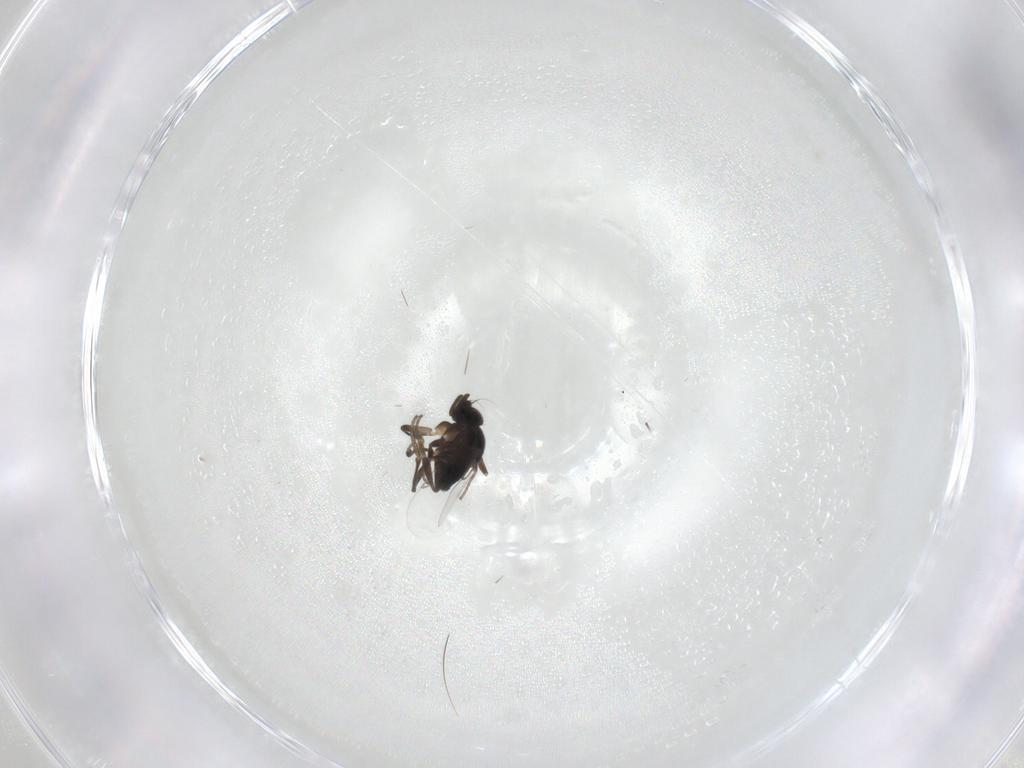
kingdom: Animalia
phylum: Arthropoda
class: Insecta
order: Diptera
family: Phoridae
